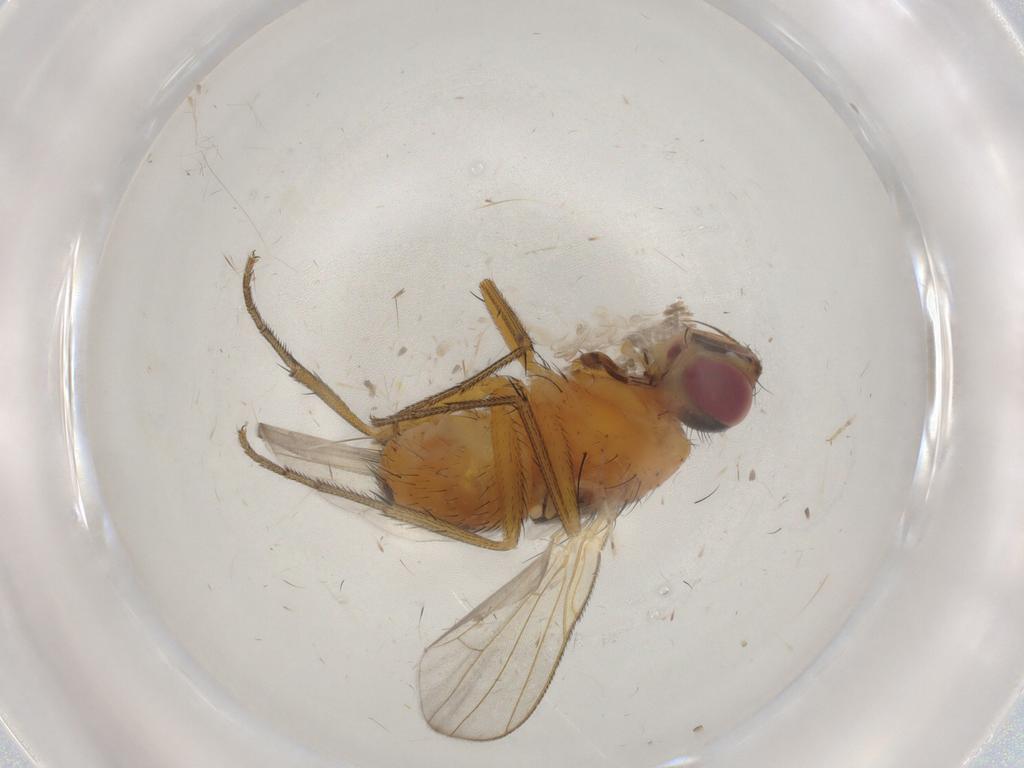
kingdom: Animalia
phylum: Arthropoda
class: Insecta
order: Diptera
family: Muscidae
